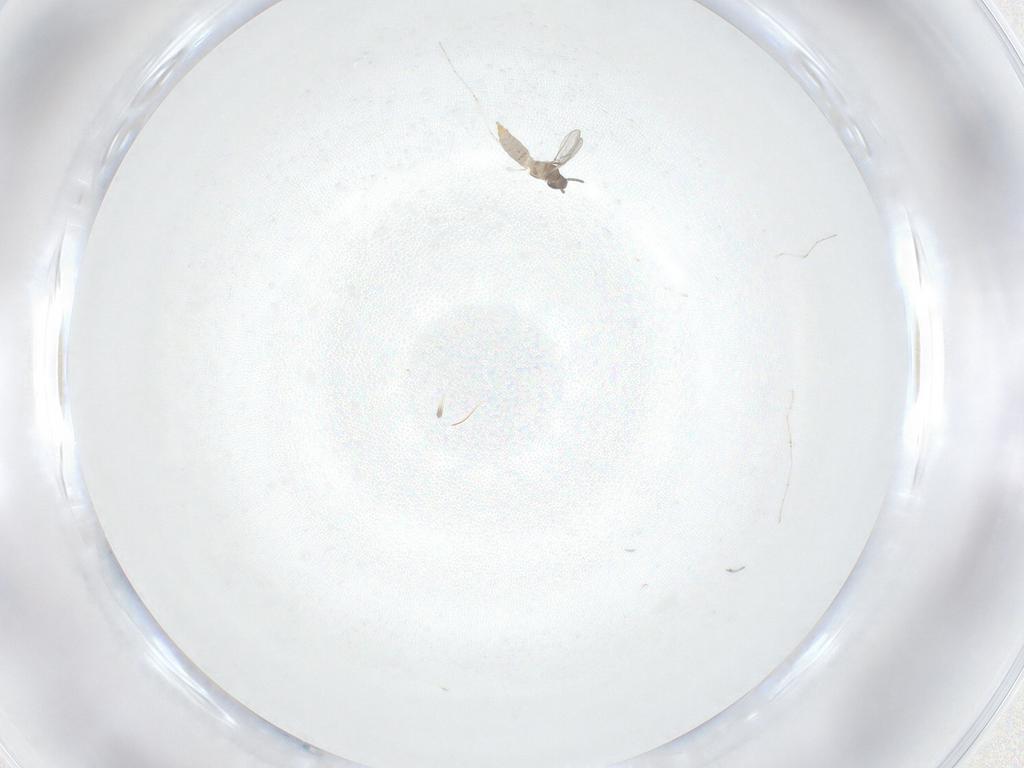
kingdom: Animalia
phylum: Arthropoda
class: Insecta
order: Diptera
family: Cecidomyiidae
